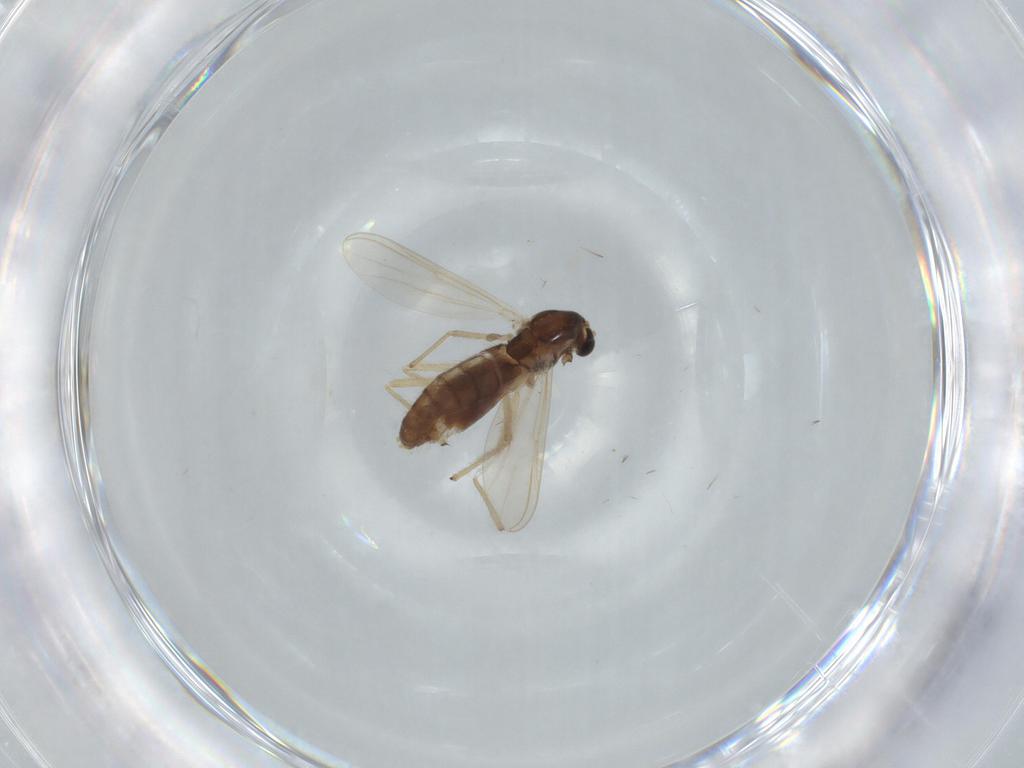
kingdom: Animalia
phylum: Arthropoda
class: Insecta
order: Diptera
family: Chironomidae
